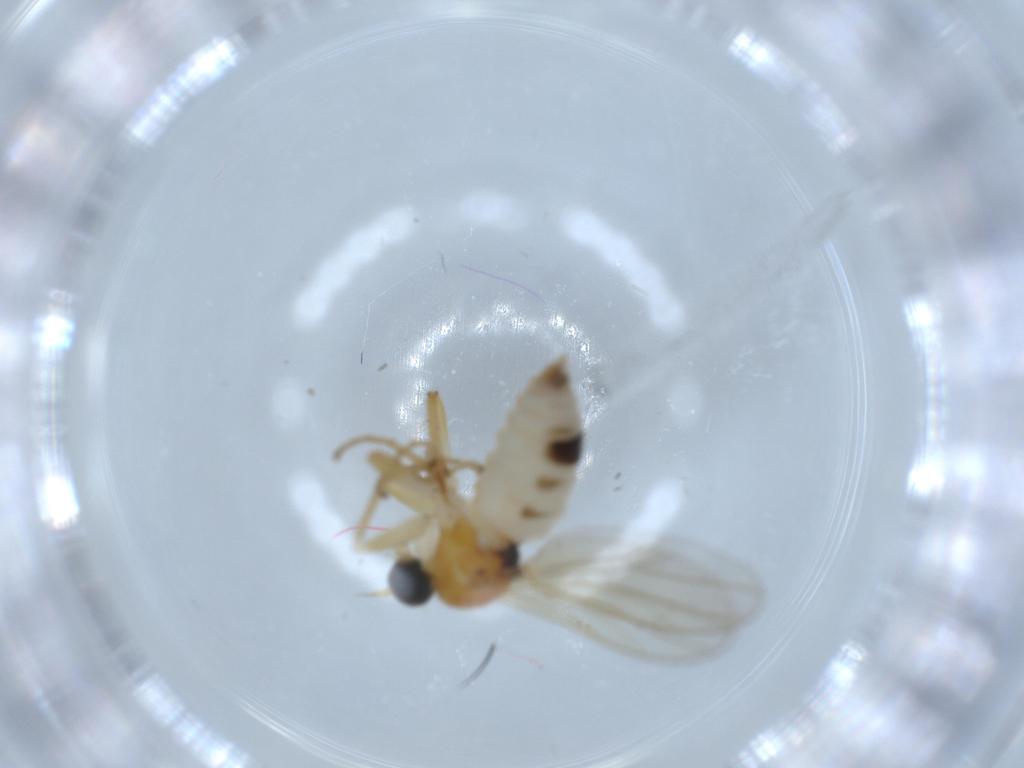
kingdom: Animalia
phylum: Arthropoda
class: Insecta
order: Diptera
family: Hybotidae
